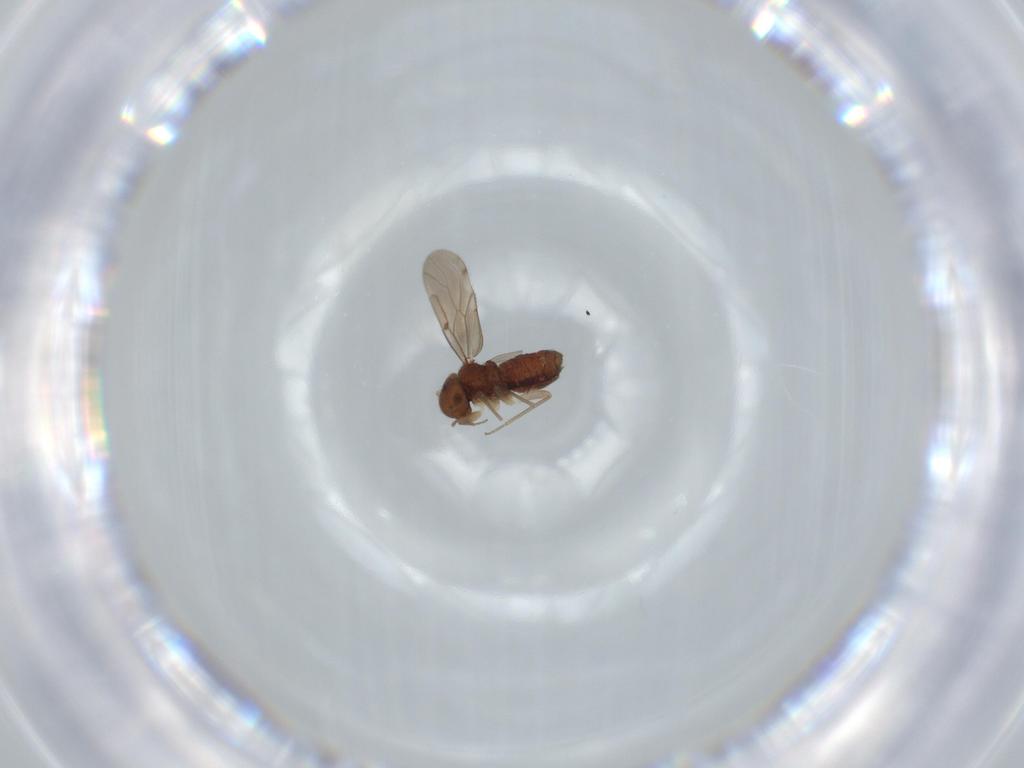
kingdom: Animalia
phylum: Arthropoda
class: Insecta
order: Psocodea
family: Ectopsocidae
